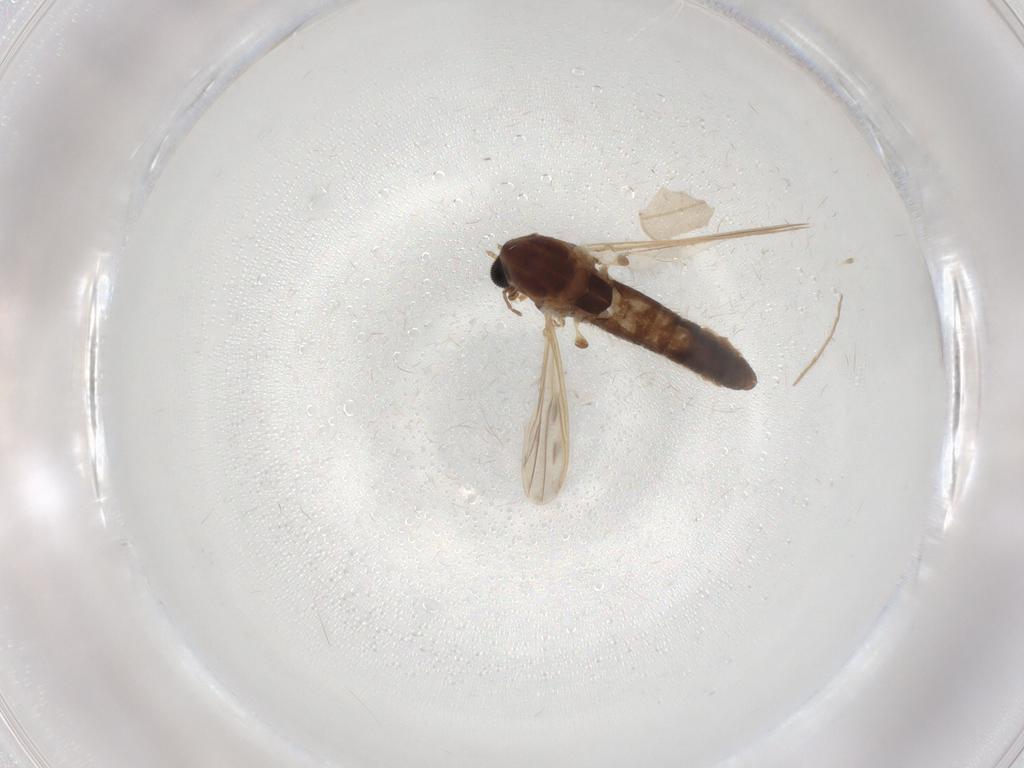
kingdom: Animalia
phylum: Arthropoda
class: Insecta
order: Diptera
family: Chironomidae
